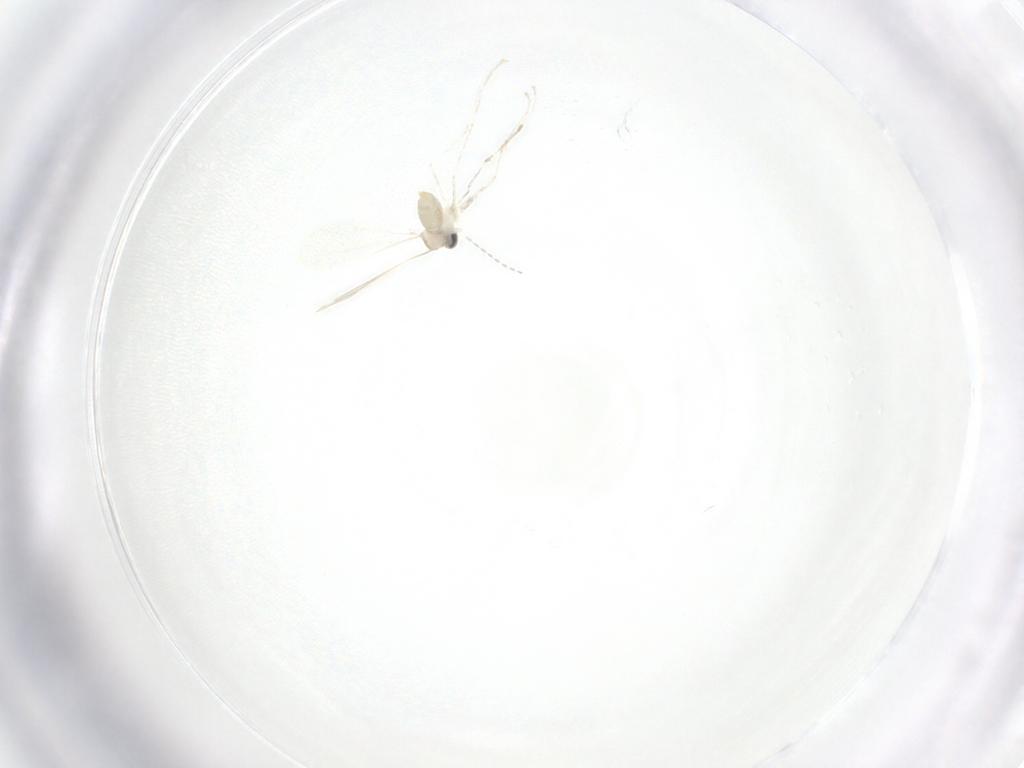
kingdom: Animalia
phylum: Arthropoda
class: Insecta
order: Diptera
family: Cecidomyiidae
